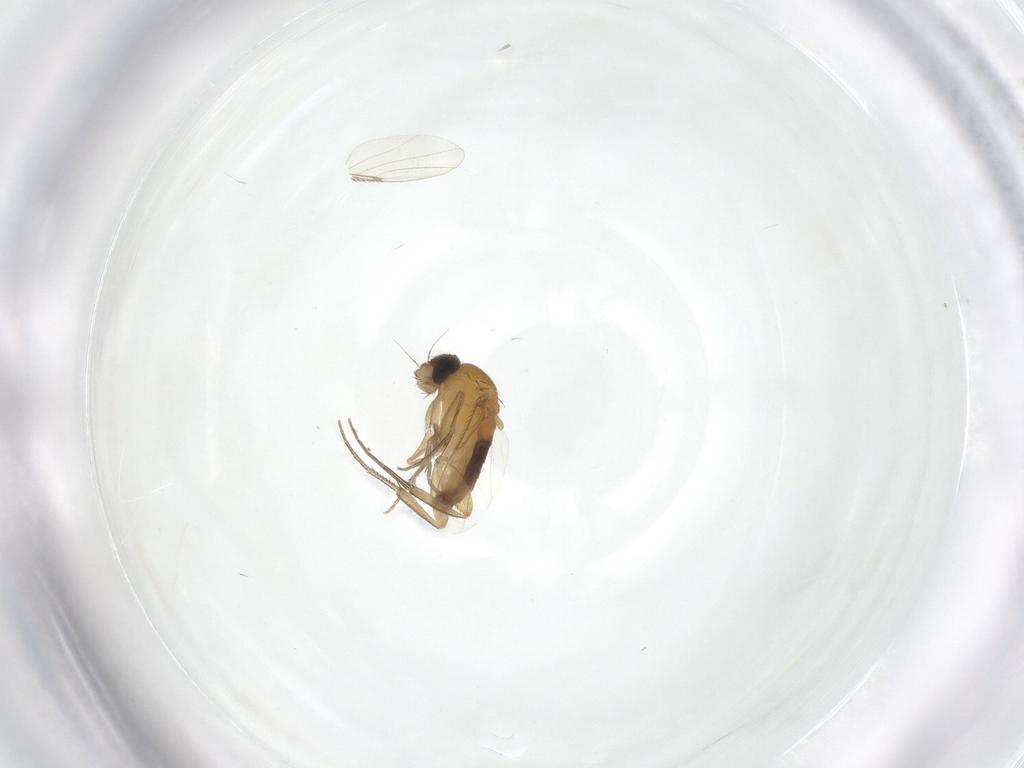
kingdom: Animalia
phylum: Arthropoda
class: Insecta
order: Diptera
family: Phoridae
